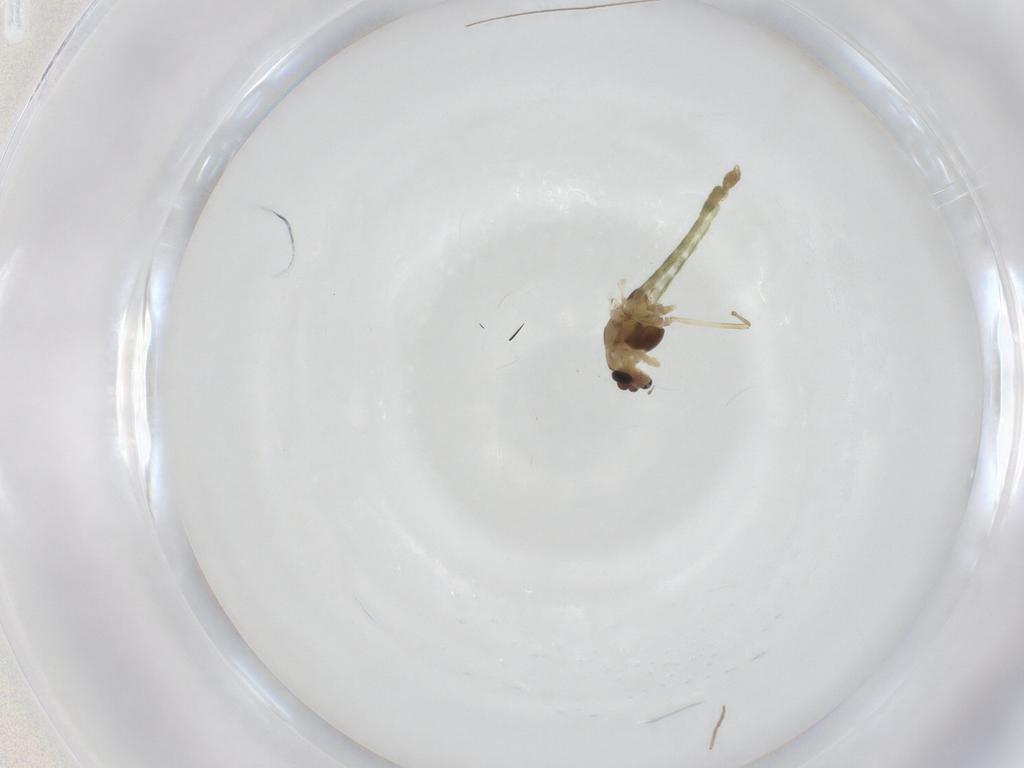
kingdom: Animalia
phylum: Arthropoda
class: Insecta
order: Diptera
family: Chironomidae
